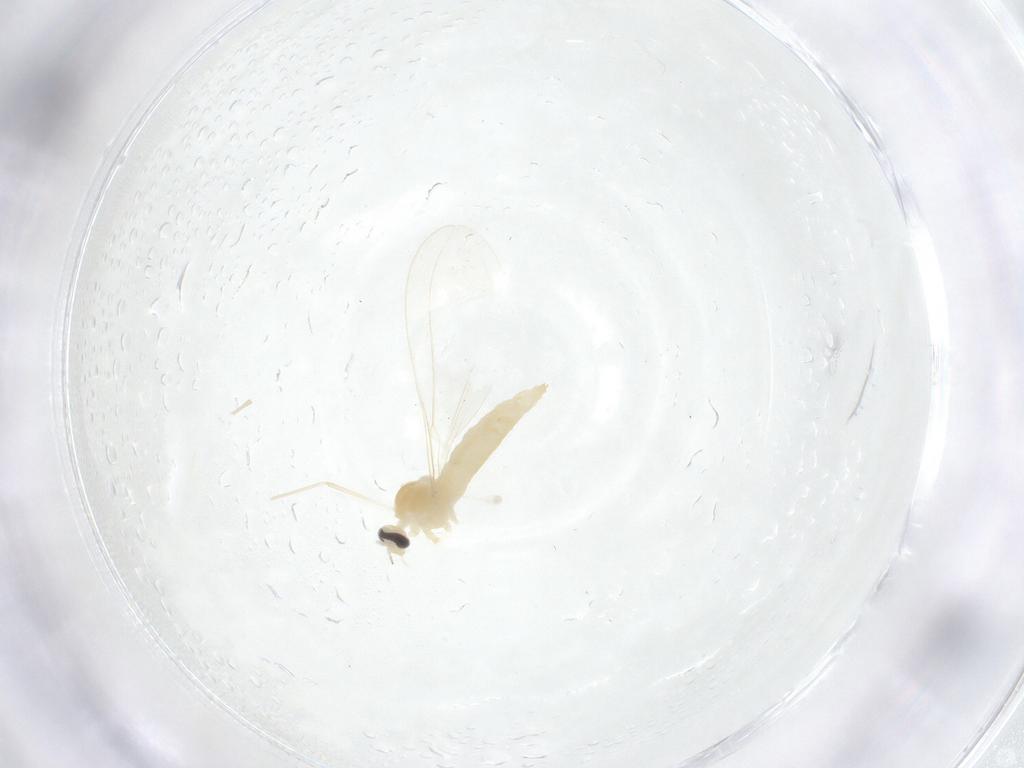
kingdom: Animalia
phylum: Arthropoda
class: Insecta
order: Diptera
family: Cecidomyiidae
